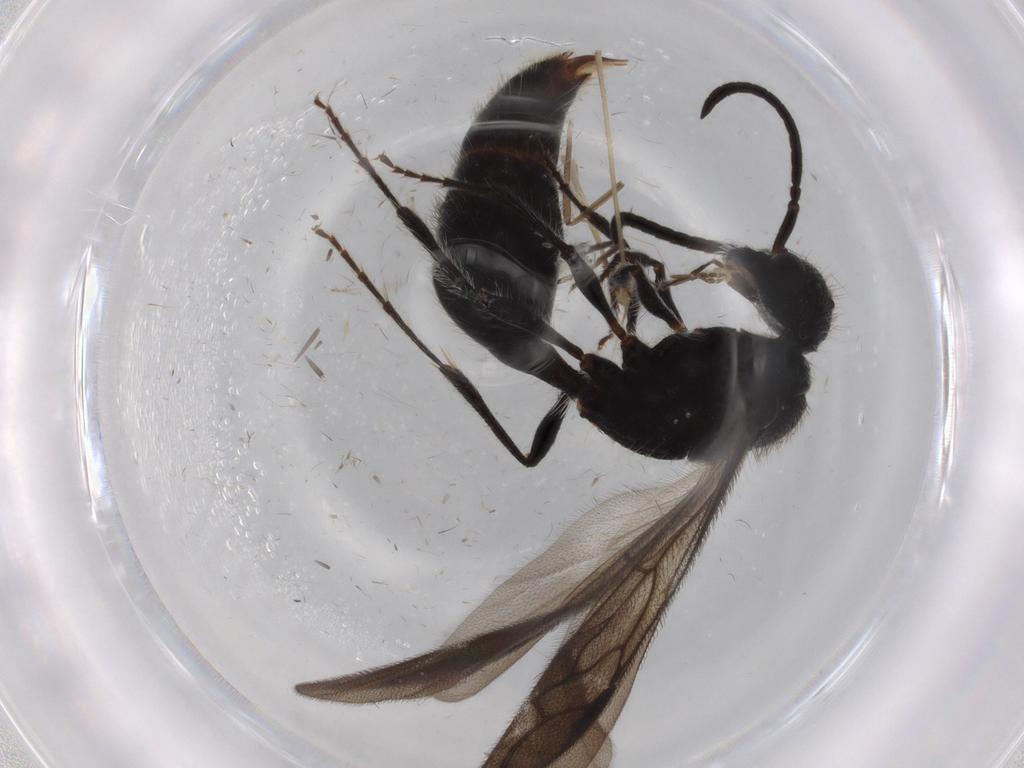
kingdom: Animalia
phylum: Arthropoda
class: Insecta
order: Hymenoptera
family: Mutillidae
